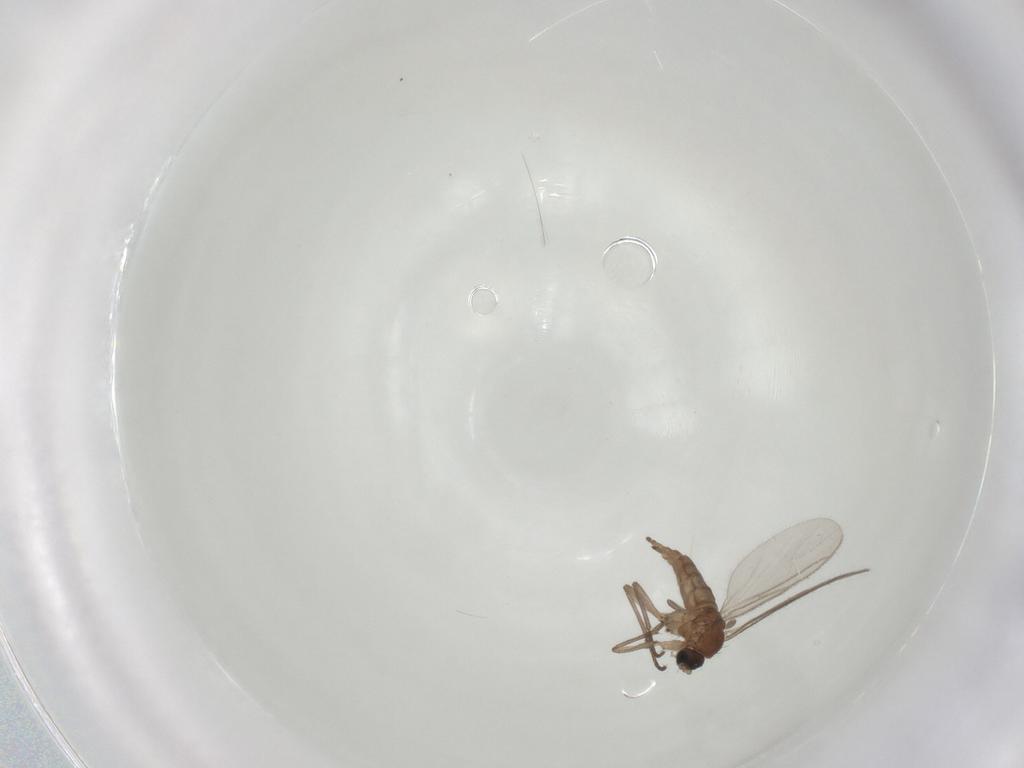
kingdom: Animalia
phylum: Arthropoda
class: Insecta
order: Diptera
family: Sciaridae
